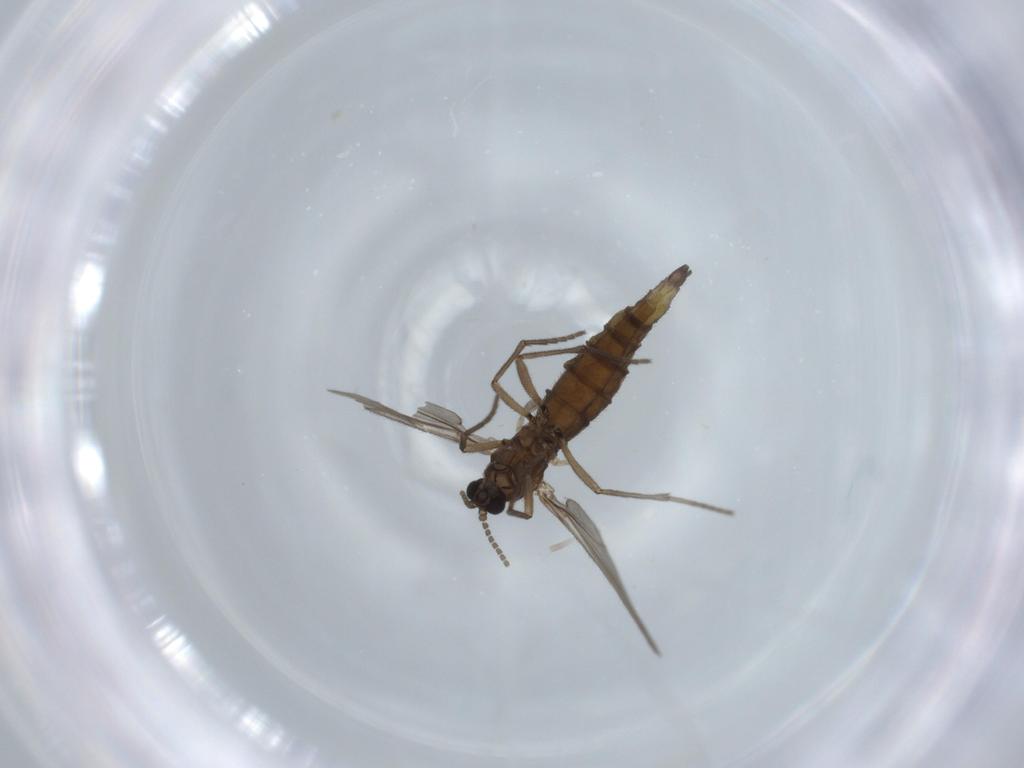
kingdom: Animalia
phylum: Arthropoda
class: Insecta
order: Diptera
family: Sciaridae
